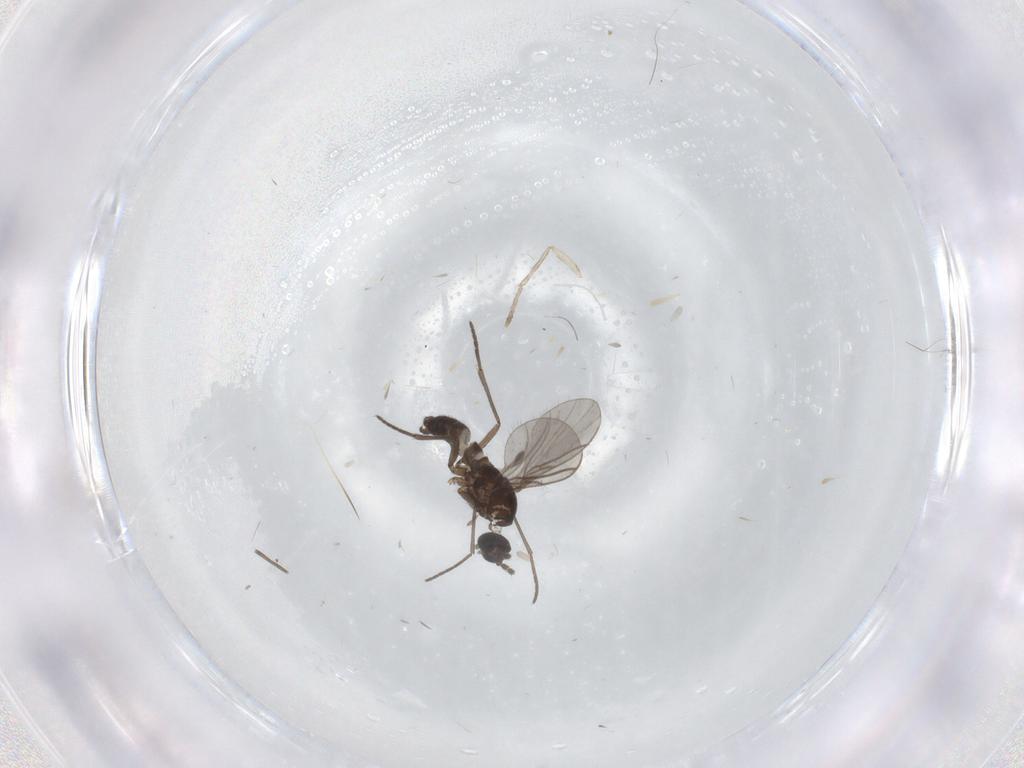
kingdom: Animalia
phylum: Arthropoda
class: Insecta
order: Diptera
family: Psychodidae
